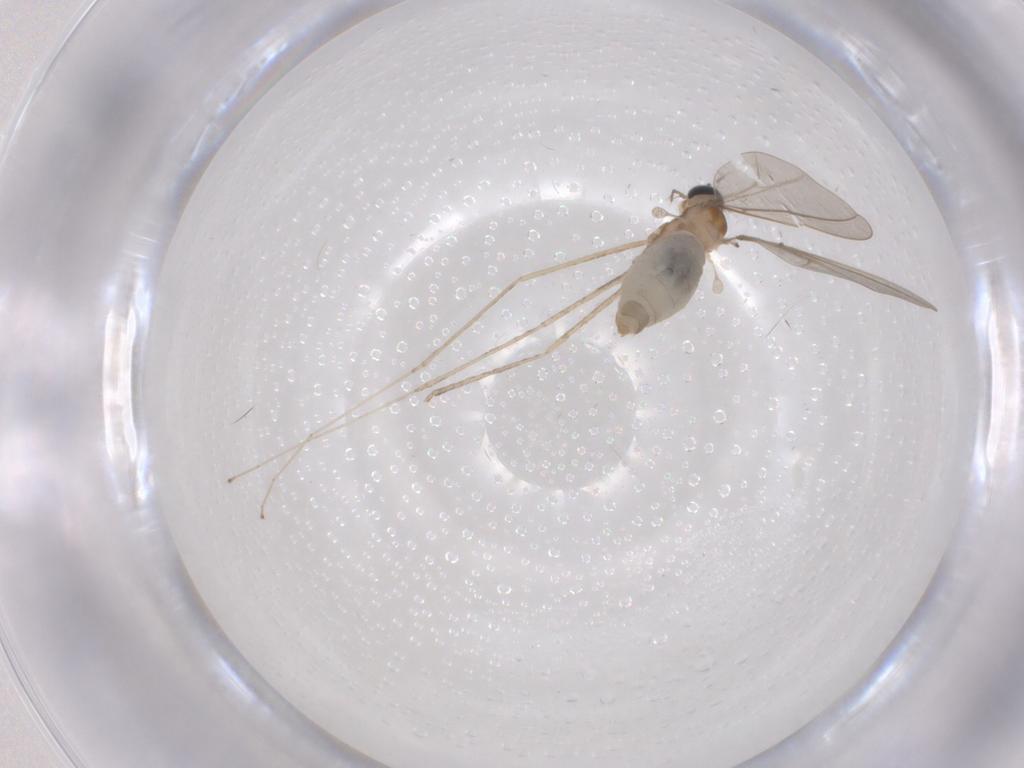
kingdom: Animalia
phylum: Arthropoda
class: Insecta
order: Diptera
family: Cecidomyiidae
